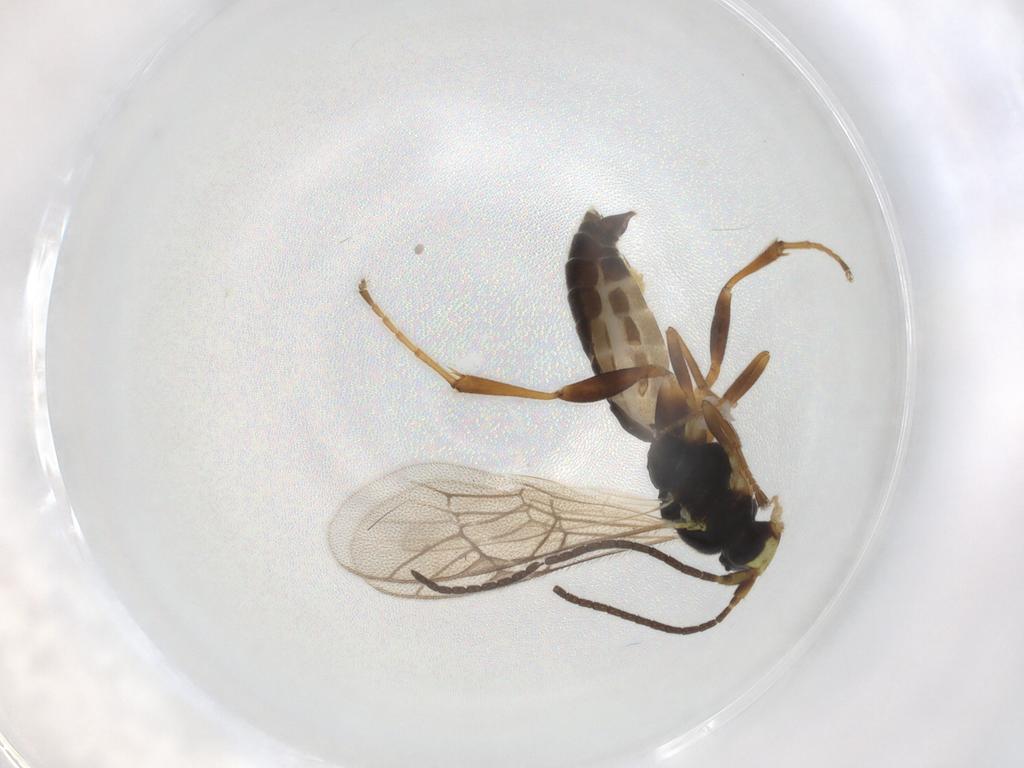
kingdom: Animalia
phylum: Arthropoda
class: Insecta
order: Hymenoptera
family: Ichneumonidae
